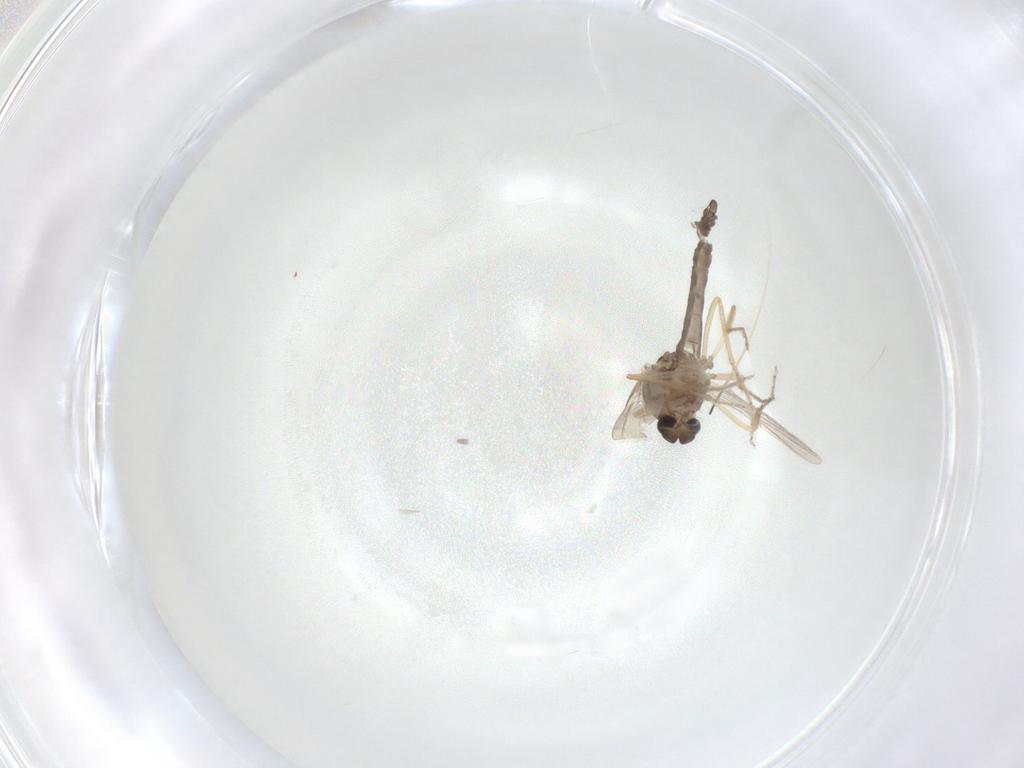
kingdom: Animalia
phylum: Arthropoda
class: Insecta
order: Diptera
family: Ceratopogonidae
